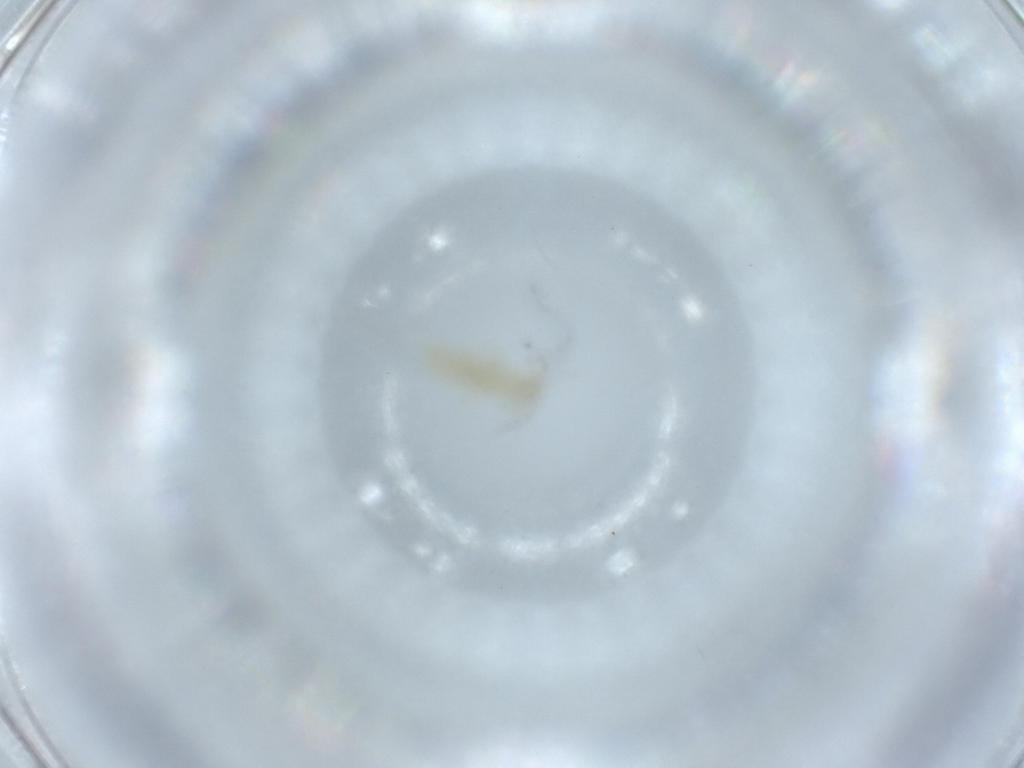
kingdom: Animalia
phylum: Arthropoda
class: Collembola
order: Entomobryomorpha
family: Entomobryidae
